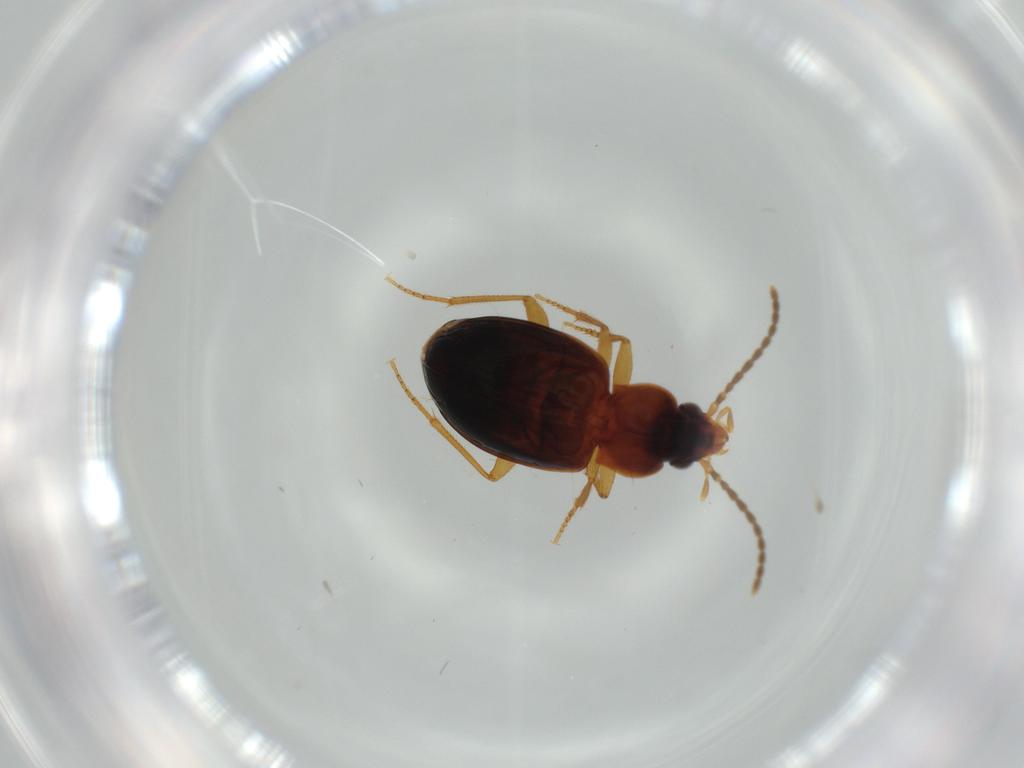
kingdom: Animalia
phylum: Arthropoda
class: Insecta
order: Coleoptera
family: Carabidae
